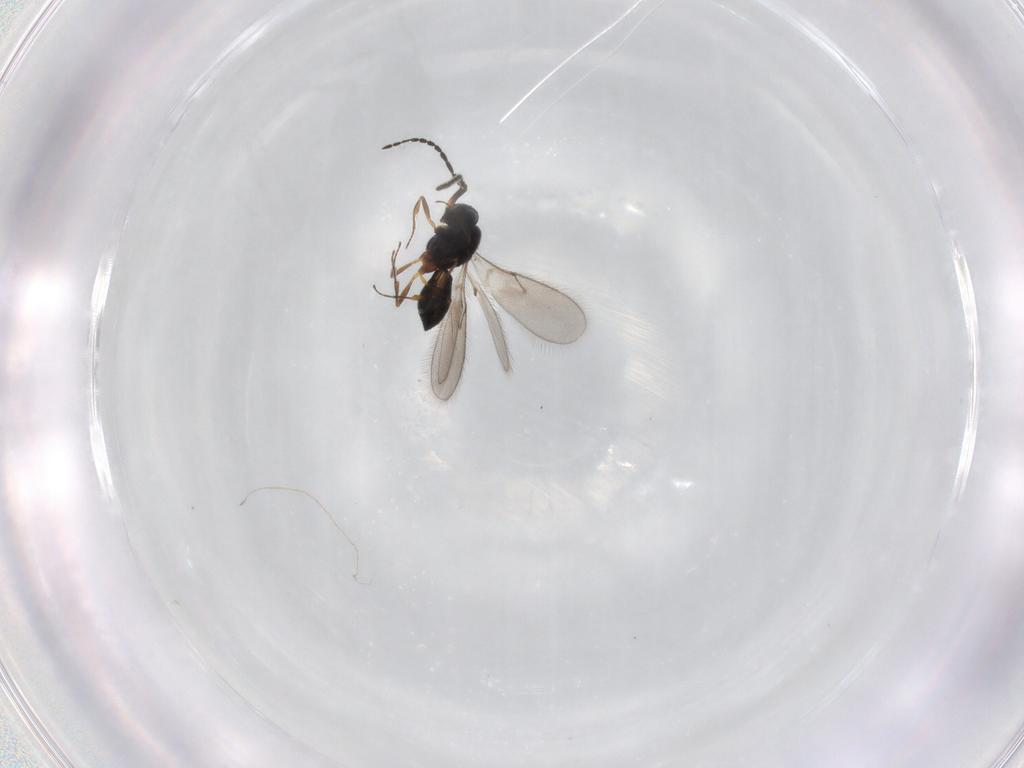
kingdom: Animalia
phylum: Arthropoda
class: Insecta
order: Hymenoptera
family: Scelionidae
